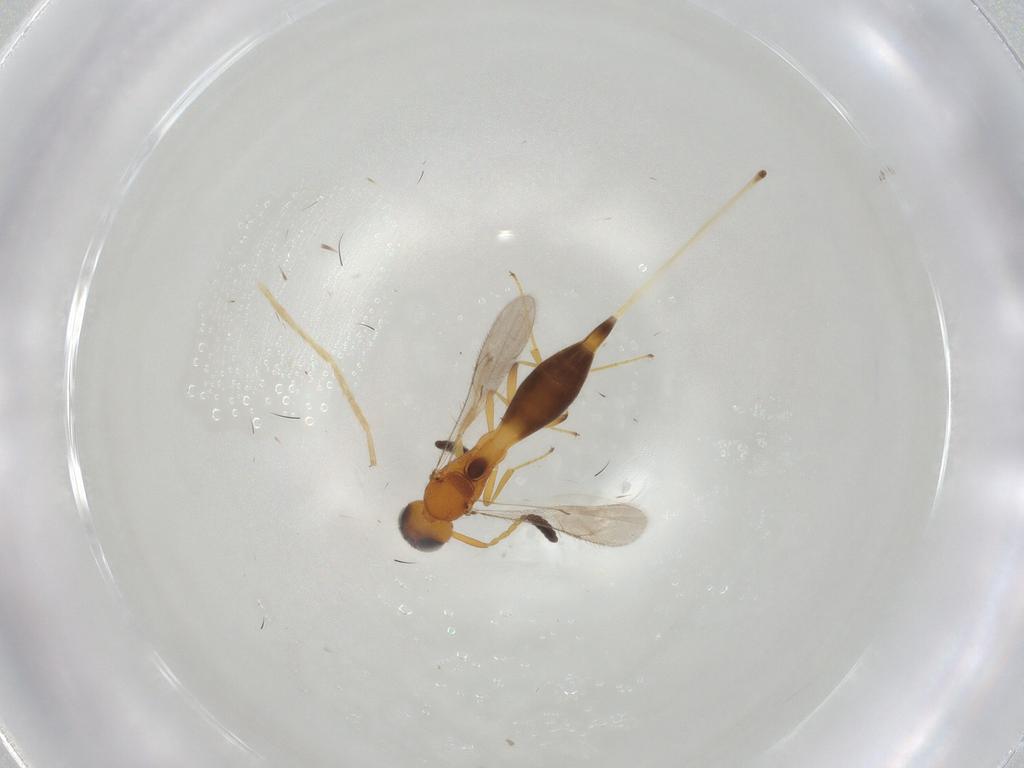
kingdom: Animalia
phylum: Arthropoda
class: Insecta
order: Hymenoptera
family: Scelionidae
